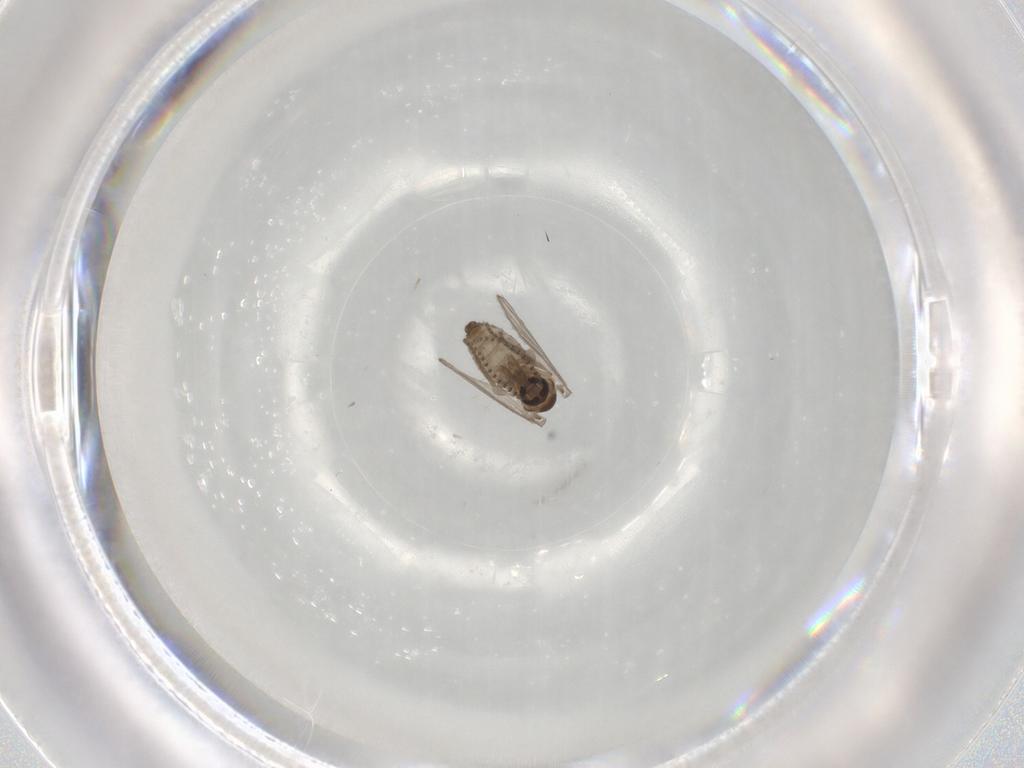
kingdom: Animalia
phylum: Arthropoda
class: Insecta
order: Diptera
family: Psychodidae
